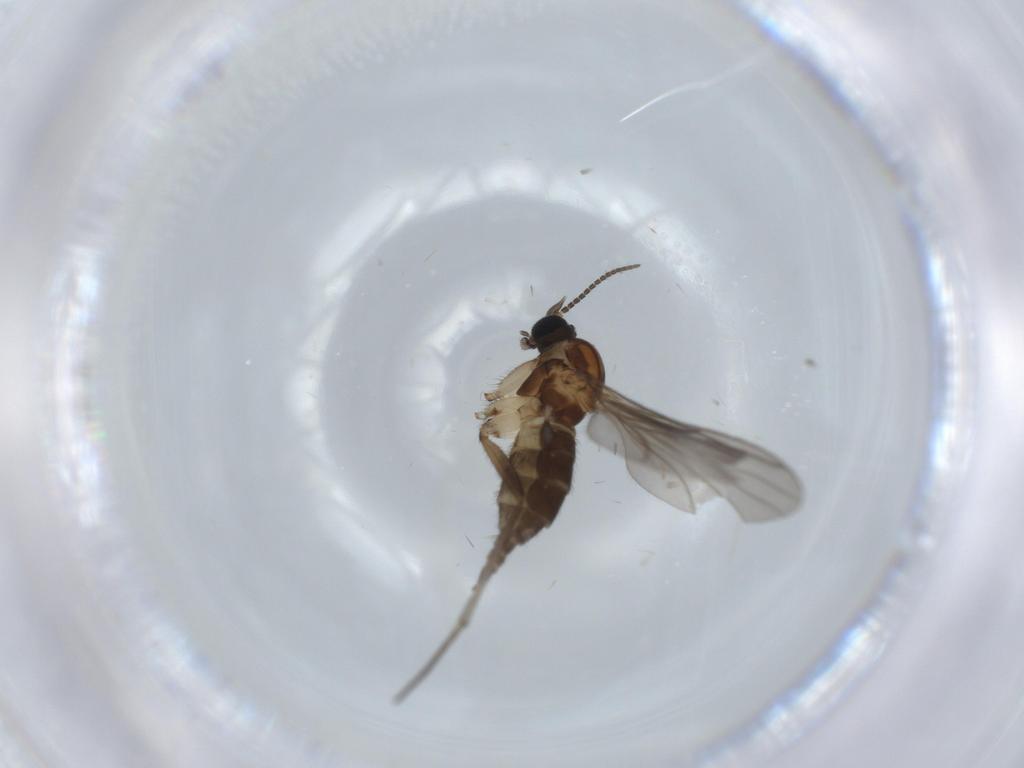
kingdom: Animalia
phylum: Arthropoda
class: Insecta
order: Diptera
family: Sciaridae
